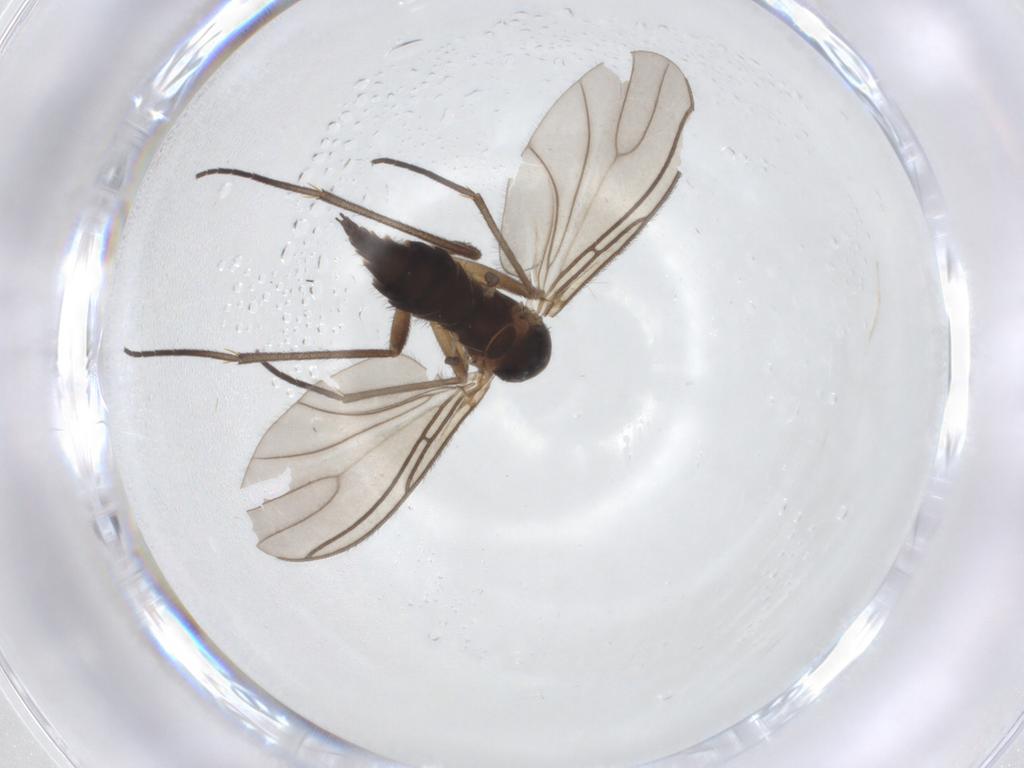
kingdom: Animalia
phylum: Arthropoda
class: Insecta
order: Diptera
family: Sciaridae
